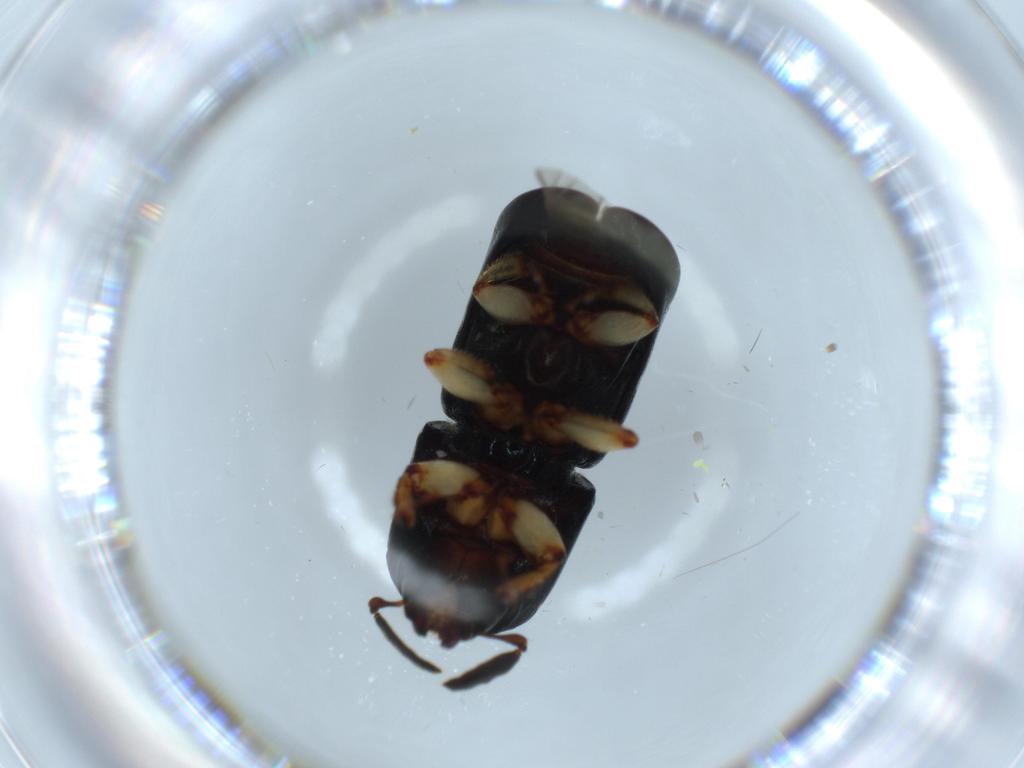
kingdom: Animalia
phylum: Arthropoda
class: Insecta
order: Coleoptera
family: Curculionidae
